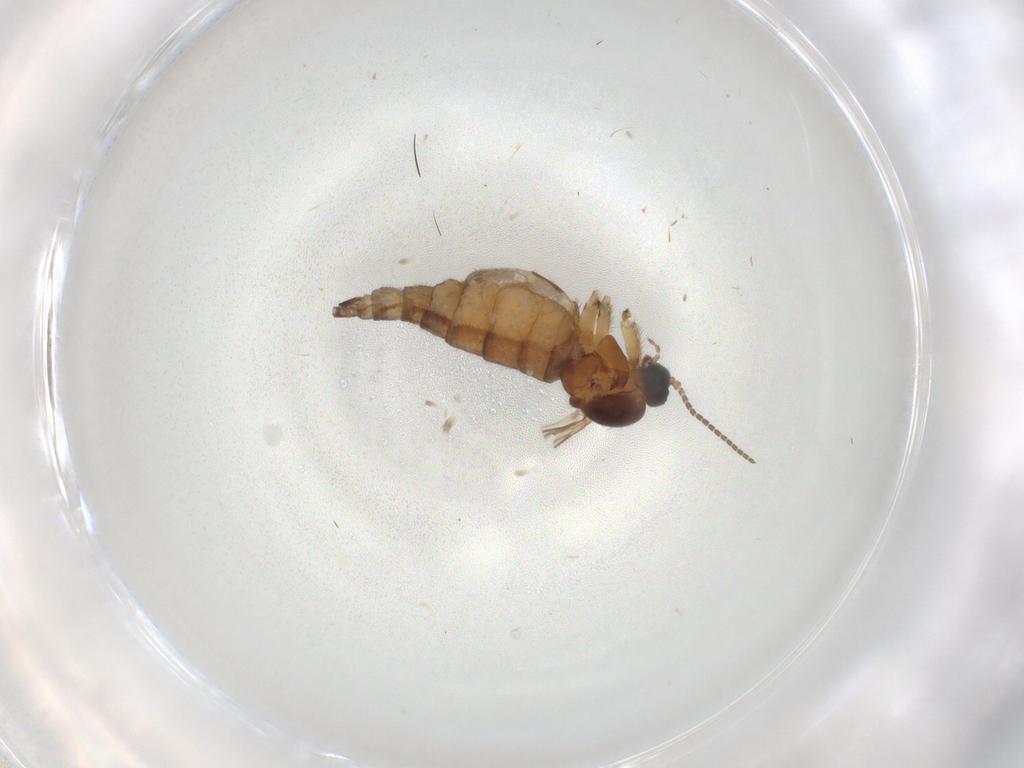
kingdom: Animalia
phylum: Arthropoda
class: Insecta
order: Diptera
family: Sciaridae
